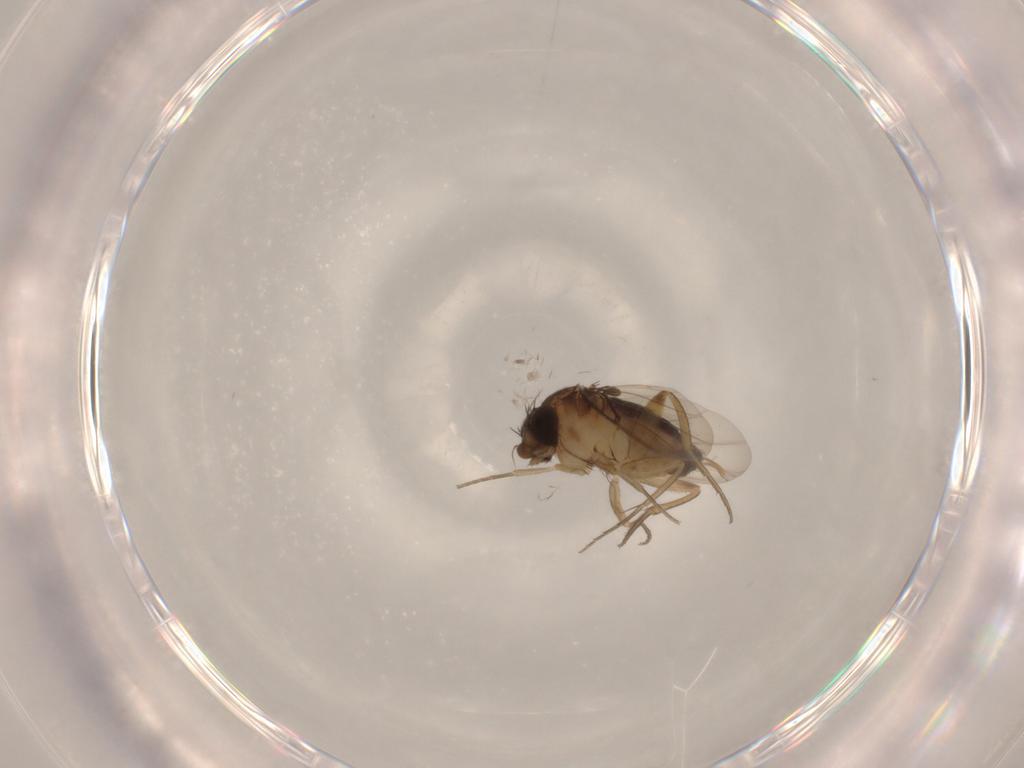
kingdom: Animalia
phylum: Arthropoda
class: Insecta
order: Diptera
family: Phoridae
